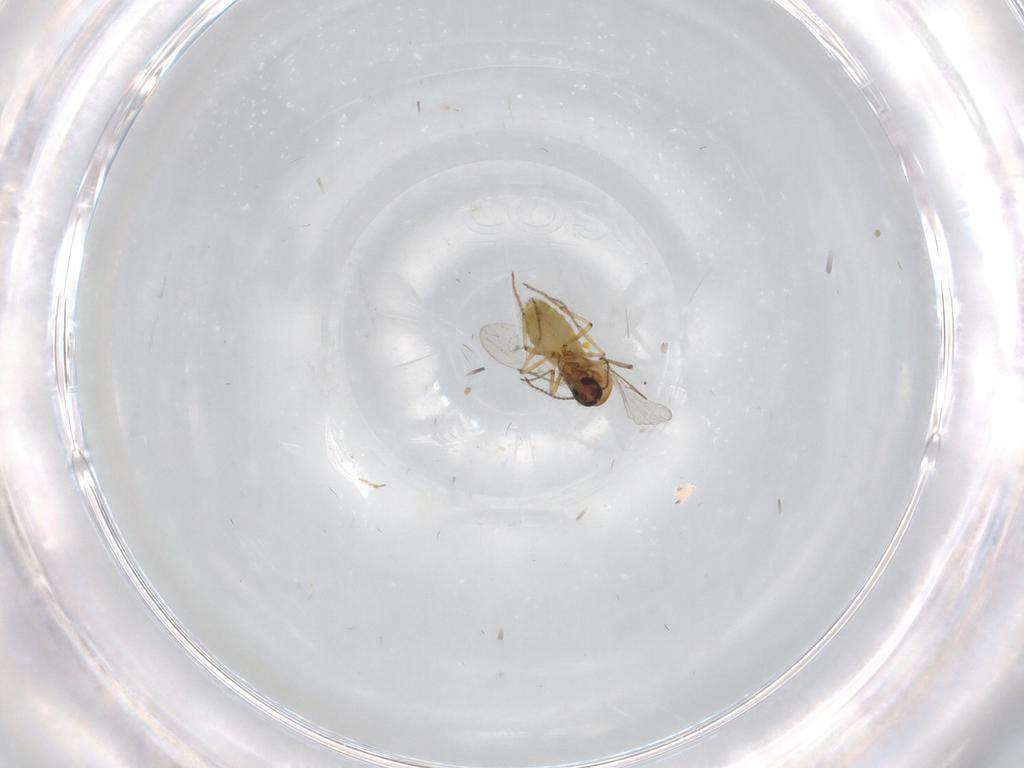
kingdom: Animalia
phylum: Arthropoda
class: Insecta
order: Diptera
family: Ceratopogonidae
